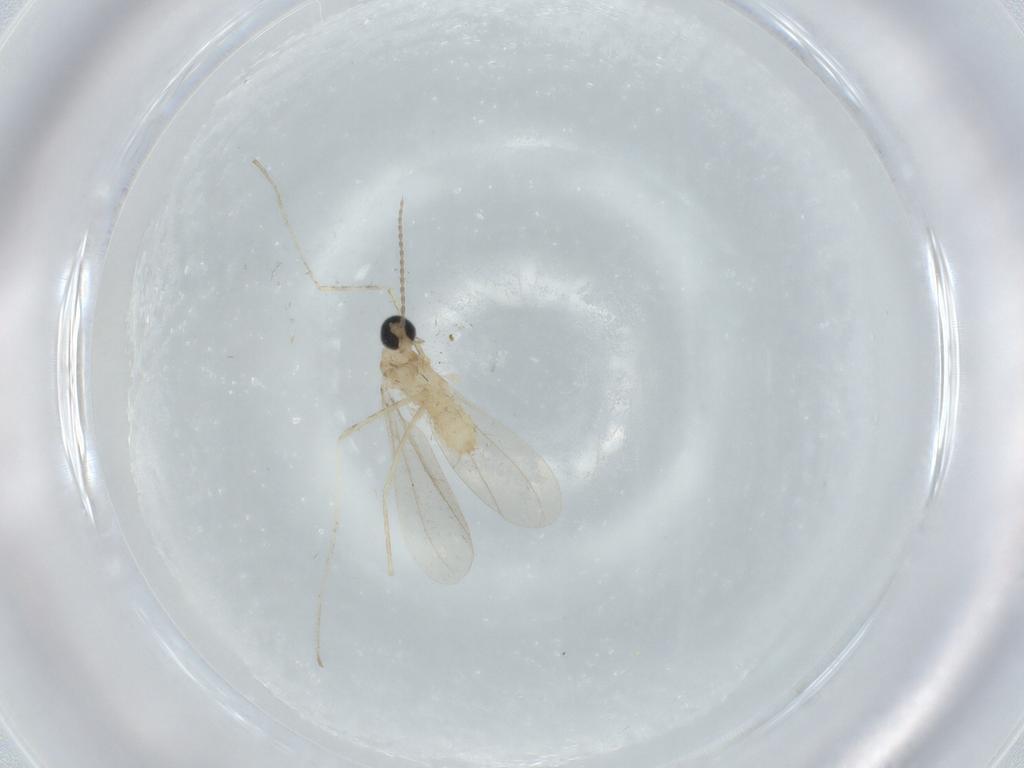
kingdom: Animalia
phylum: Arthropoda
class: Insecta
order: Diptera
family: Cecidomyiidae
